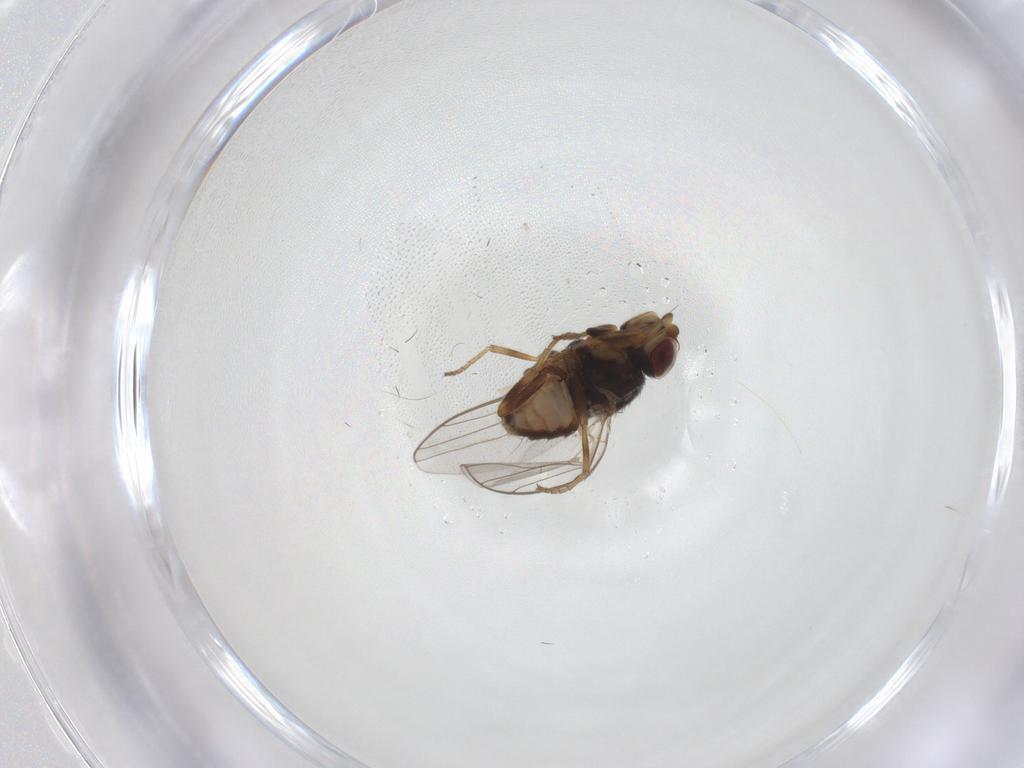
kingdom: Animalia
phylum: Arthropoda
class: Insecta
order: Diptera
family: Chloropidae
